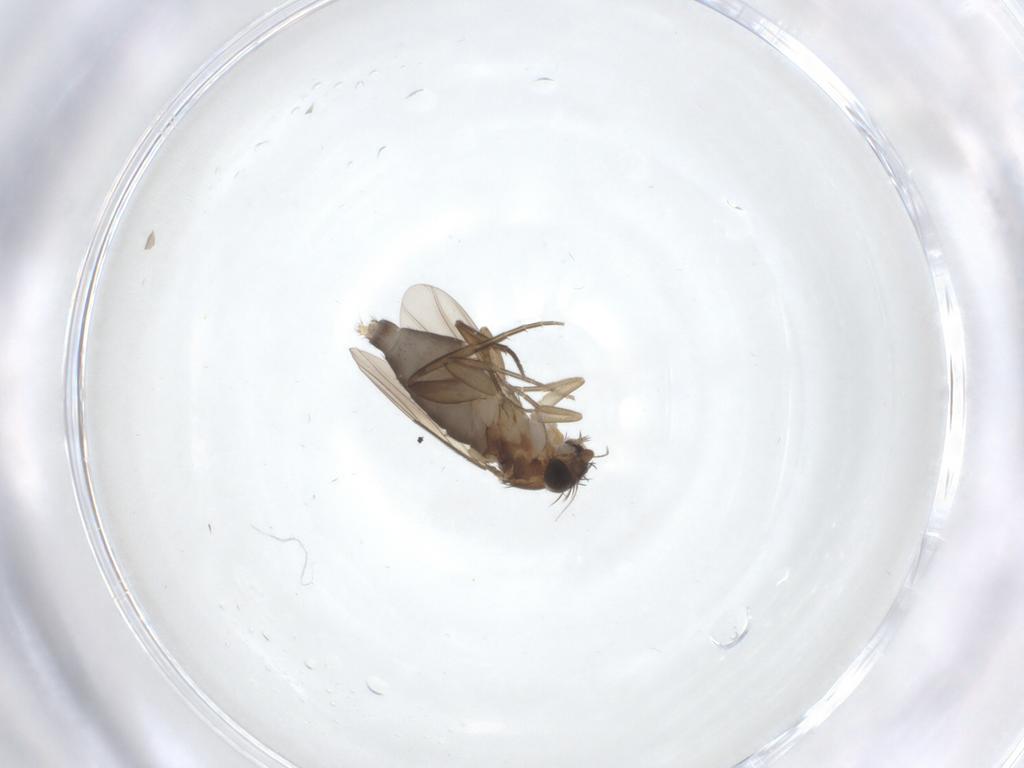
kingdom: Animalia
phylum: Arthropoda
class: Insecta
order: Diptera
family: Phoridae
